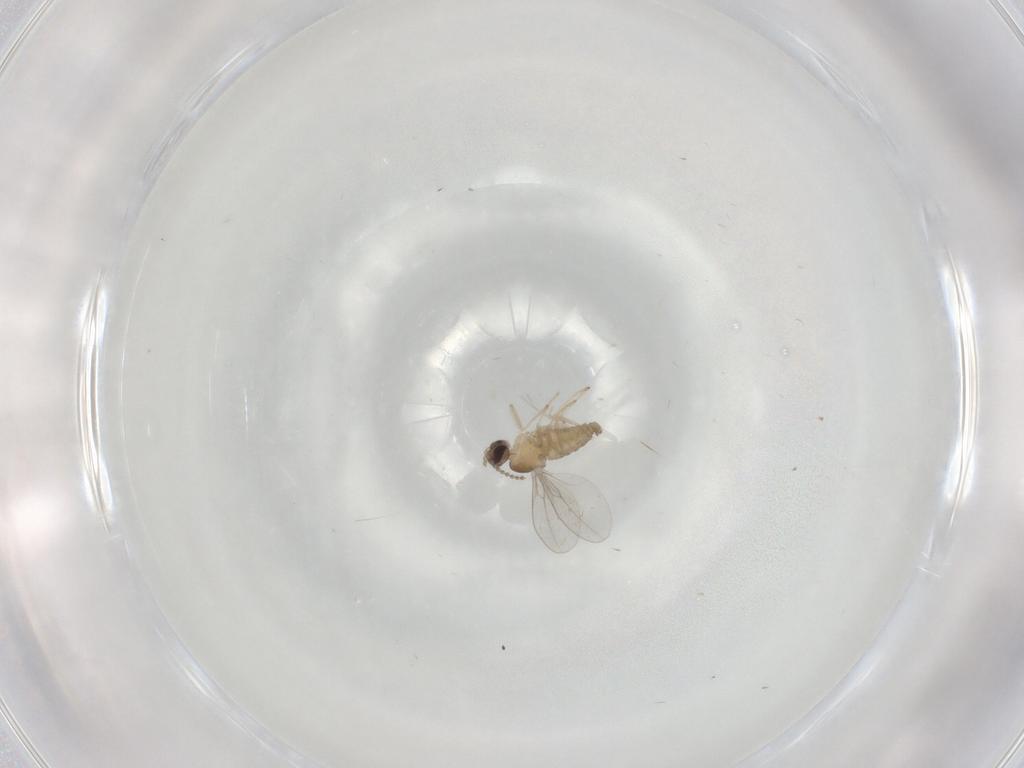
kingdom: Animalia
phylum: Arthropoda
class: Insecta
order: Diptera
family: Cecidomyiidae
